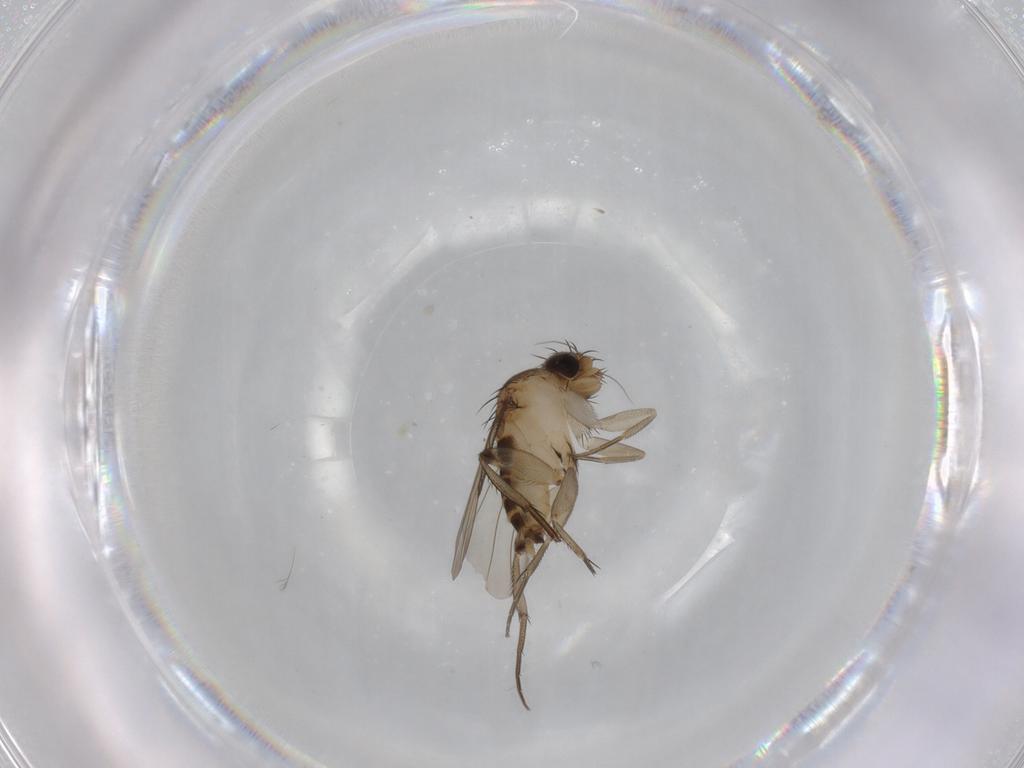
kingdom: Animalia
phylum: Arthropoda
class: Insecta
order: Diptera
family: Phoridae
